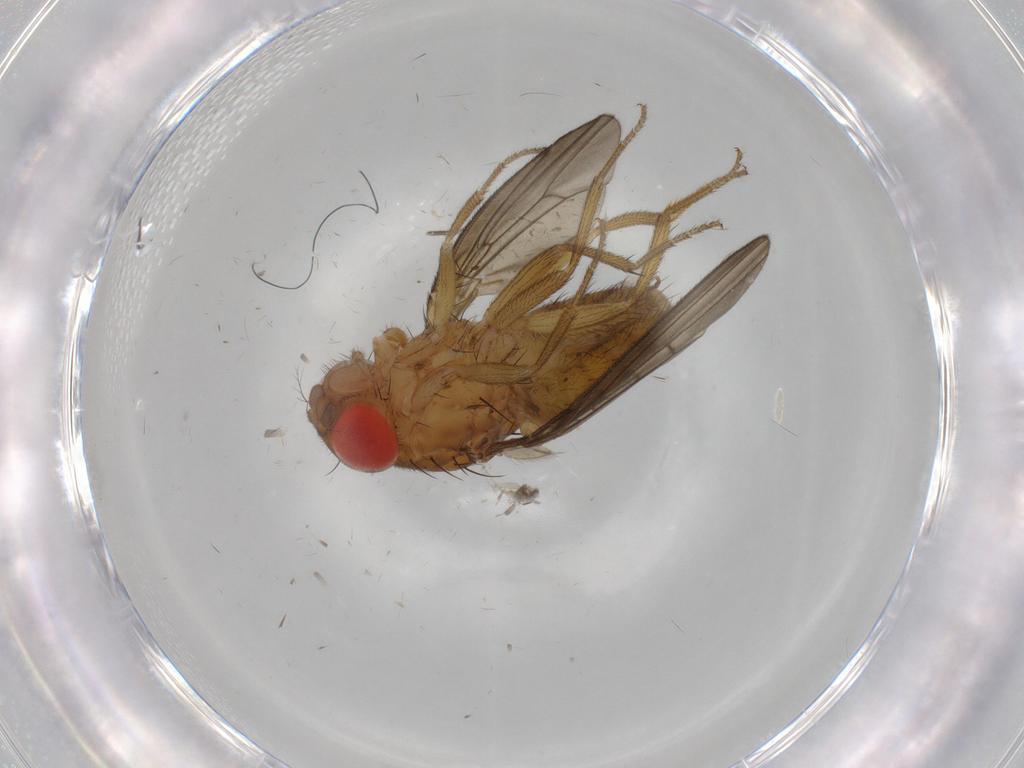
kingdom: Animalia
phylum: Arthropoda
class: Insecta
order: Diptera
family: Drosophilidae
